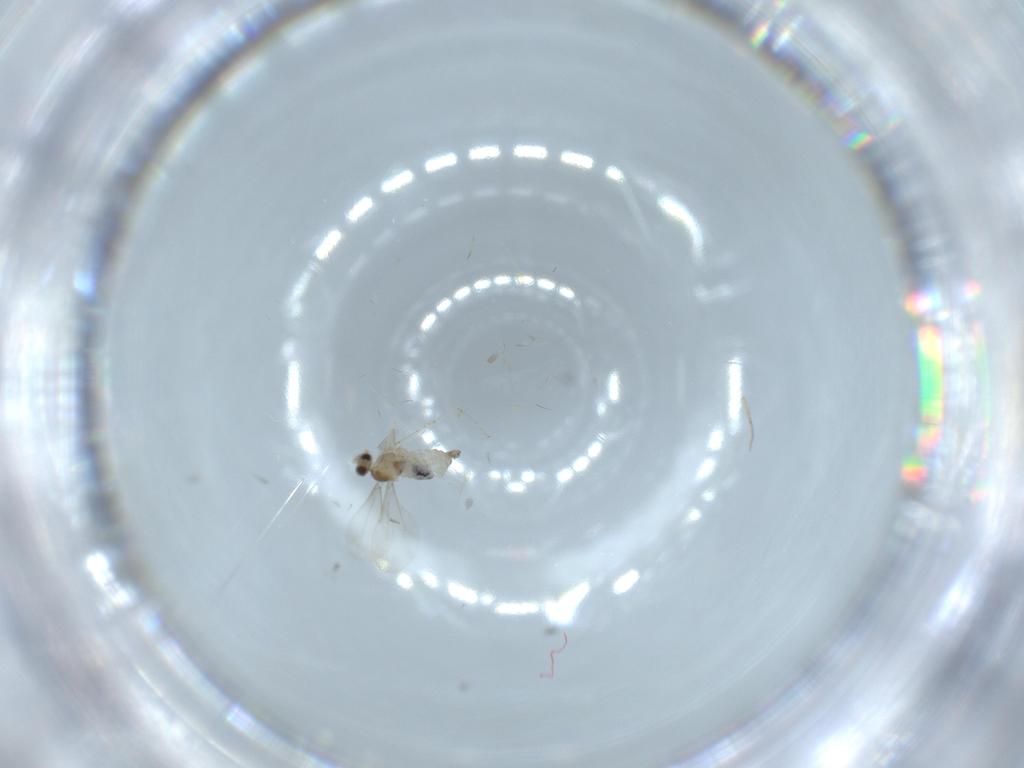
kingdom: Animalia
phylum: Arthropoda
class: Insecta
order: Diptera
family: Cecidomyiidae
